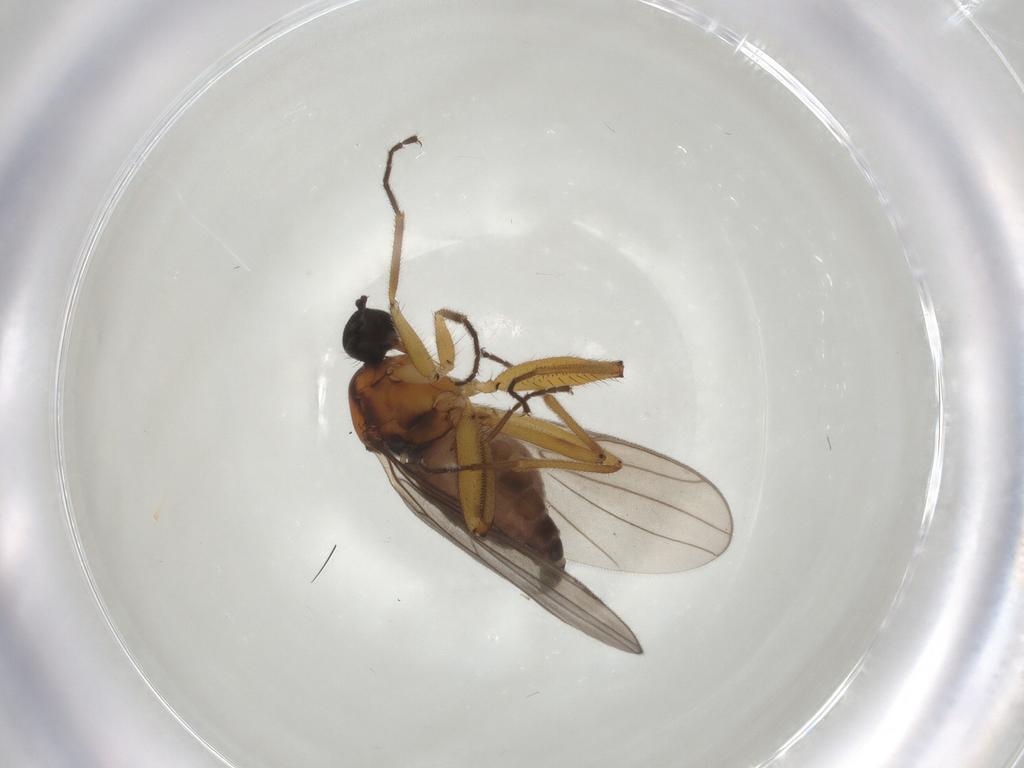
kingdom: Animalia
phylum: Arthropoda
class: Insecta
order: Diptera
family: Hybotidae
